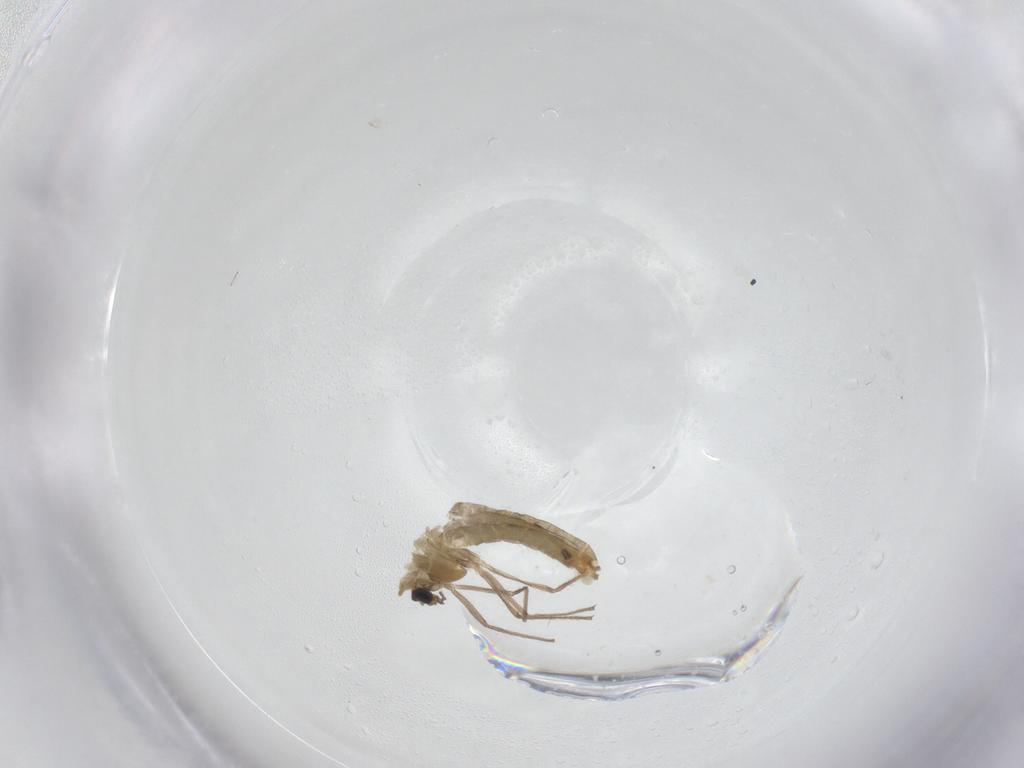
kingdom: Animalia
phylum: Arthropoda
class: Insecta
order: Diptera
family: Chironomidae
